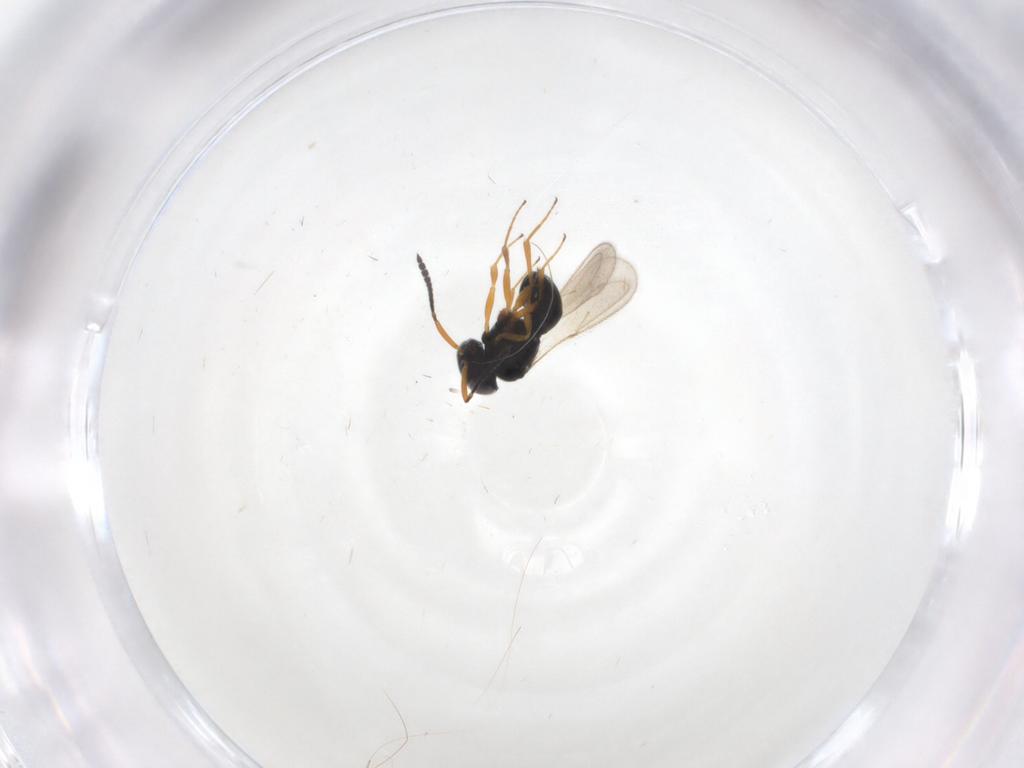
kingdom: Animalia
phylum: Arthropoda
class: Insecta
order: Hymenoptera
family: Scelionidae
